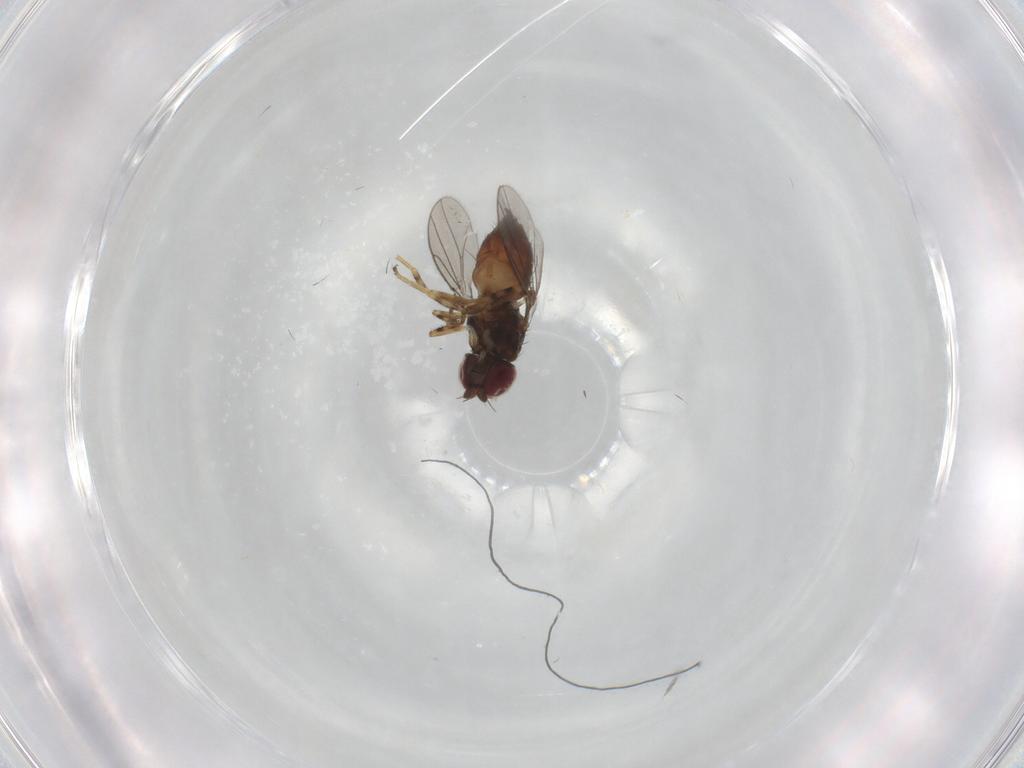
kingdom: Animalia
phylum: Arthropoda
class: Insecta
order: Diptera
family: Chloropidae
